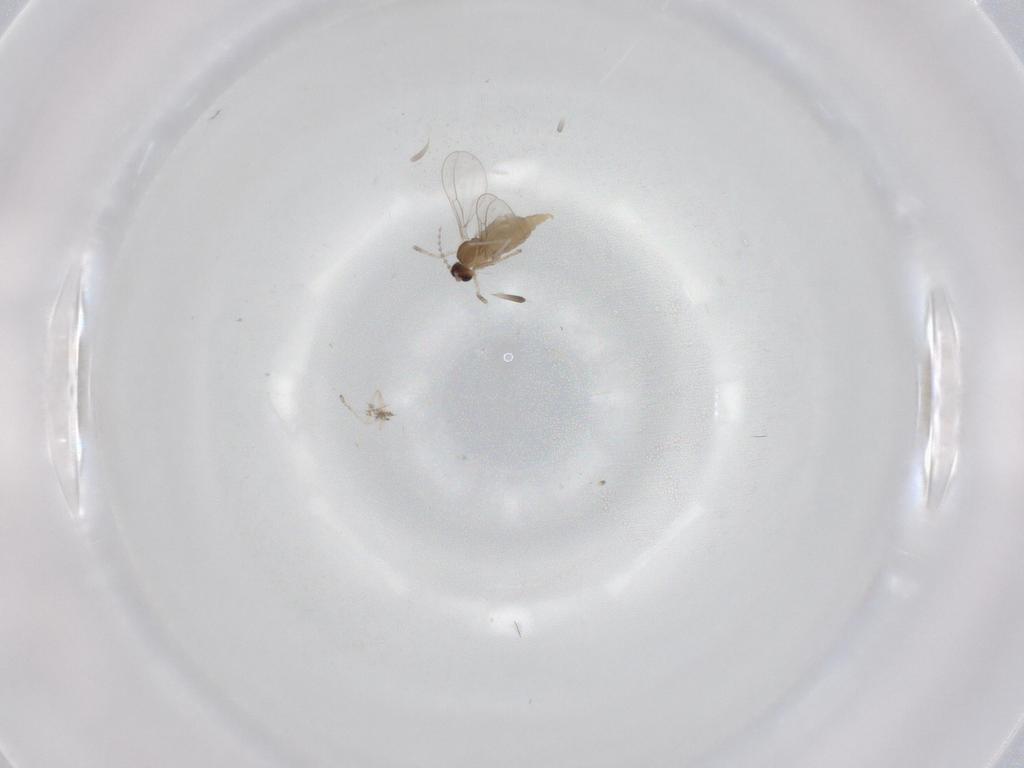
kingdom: Animalia
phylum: Arthropoda
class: Insecta
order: Diptera
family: Cecidomyiidae
